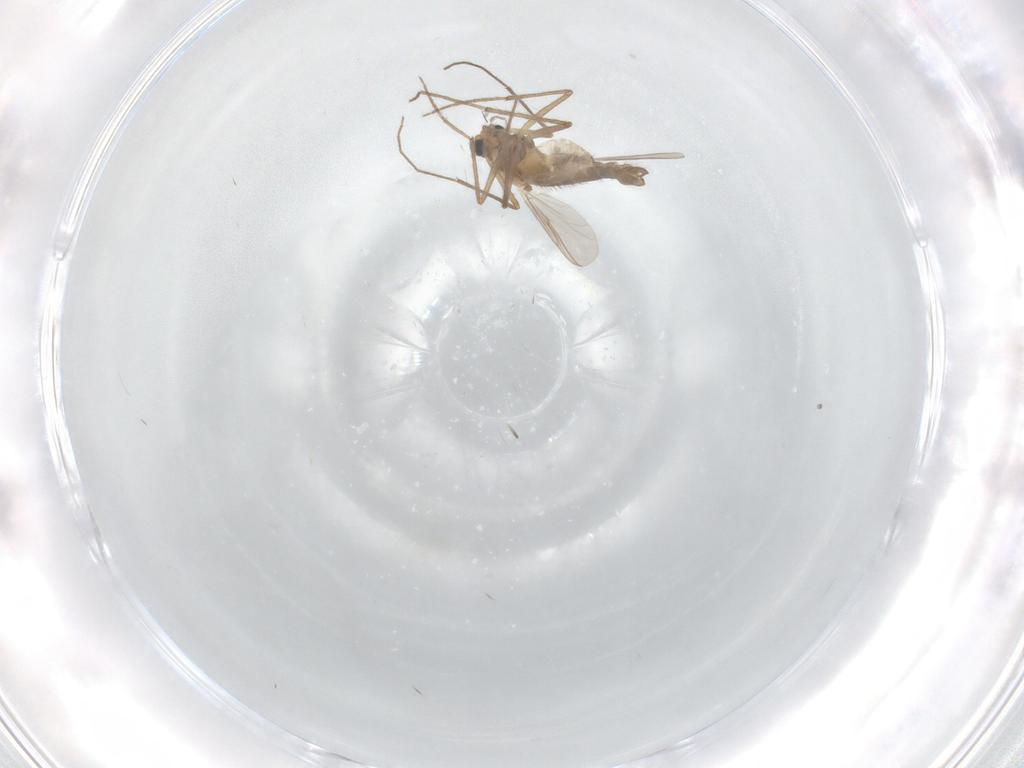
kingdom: Animalia
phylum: Arthropoda
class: Insecta
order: Diptera
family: Chironomidae
